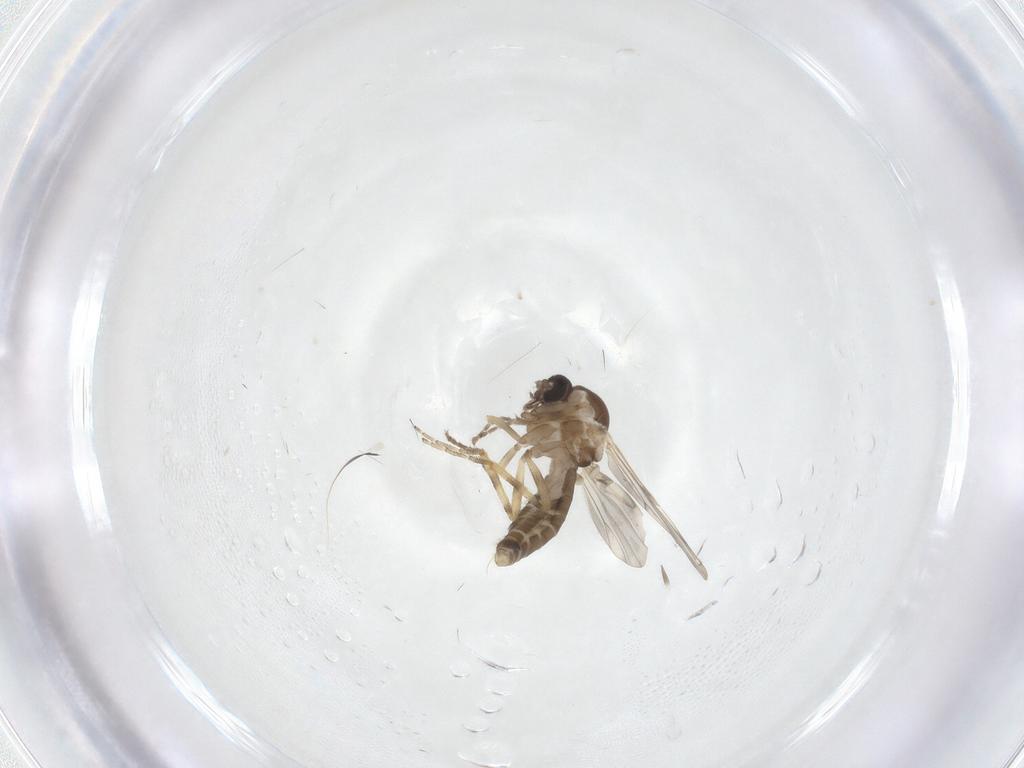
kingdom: Animalia
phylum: Arthropoda
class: Insecta
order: Diptera
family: Ceratopogonidae
